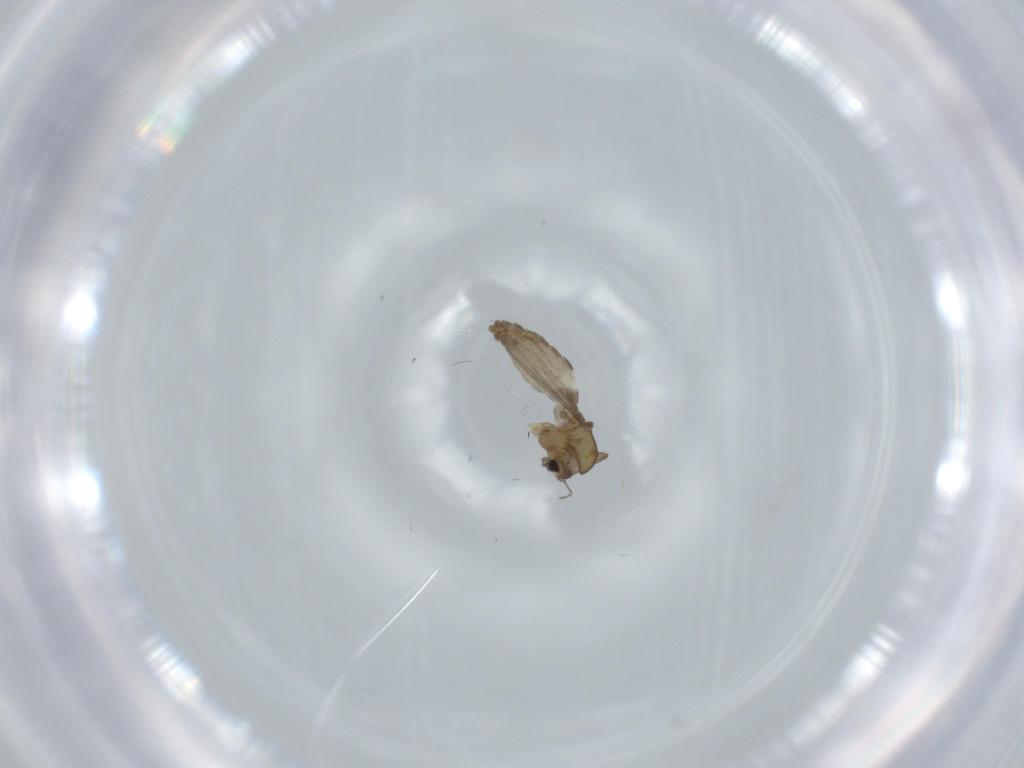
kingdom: Animalia
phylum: Arthropoda
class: Insecta
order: Diptera
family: Chironomidae
